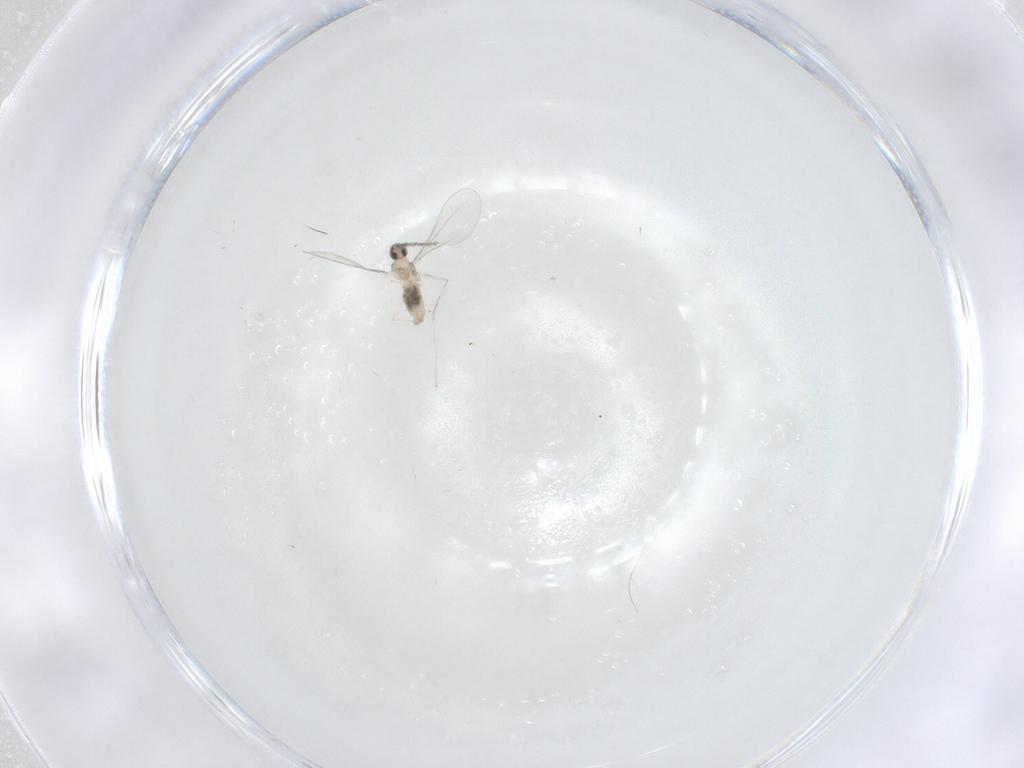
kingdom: Animalia
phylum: Arthropoda
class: Insecta
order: Diptera
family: Cecidomyiidae
